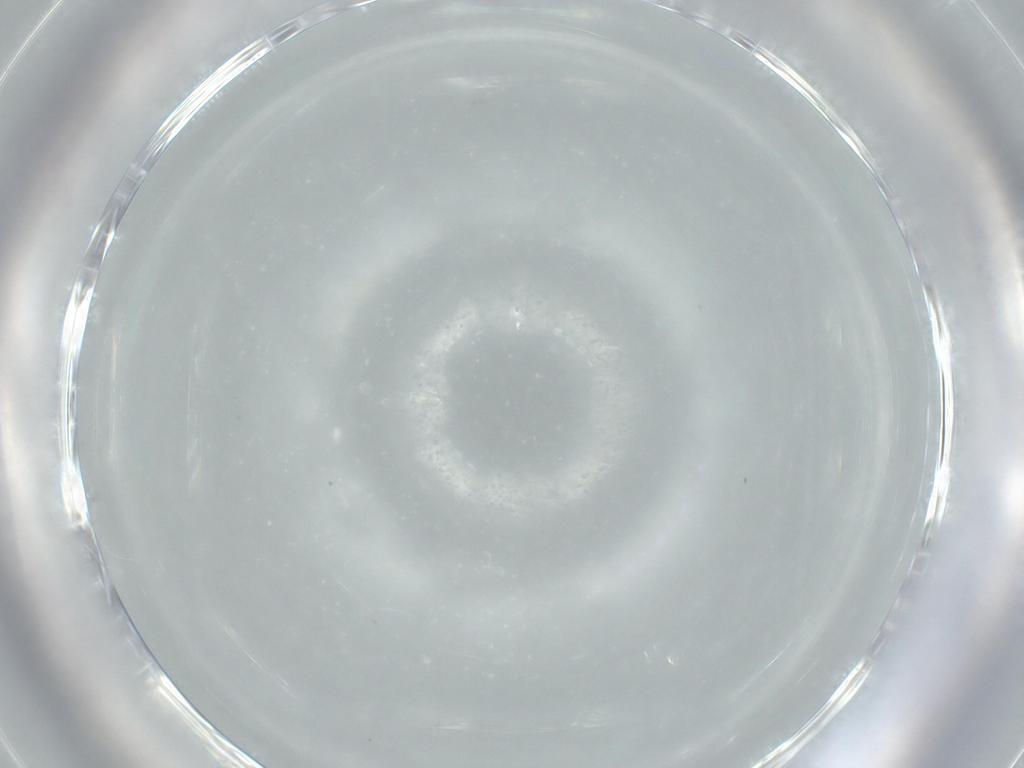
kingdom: Animalia
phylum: Arthropoda
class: Insecta
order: Diptera
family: Sciaridae
